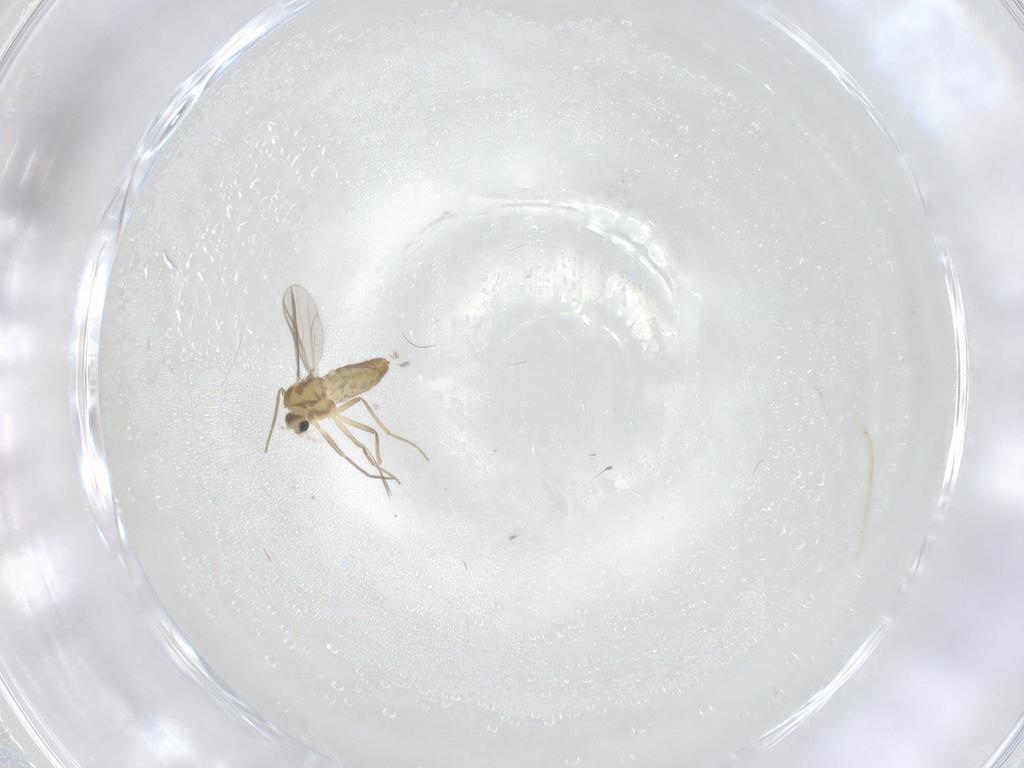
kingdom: Animalia
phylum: Arthropoda
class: Insecta
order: Diptera
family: Chironomidae
